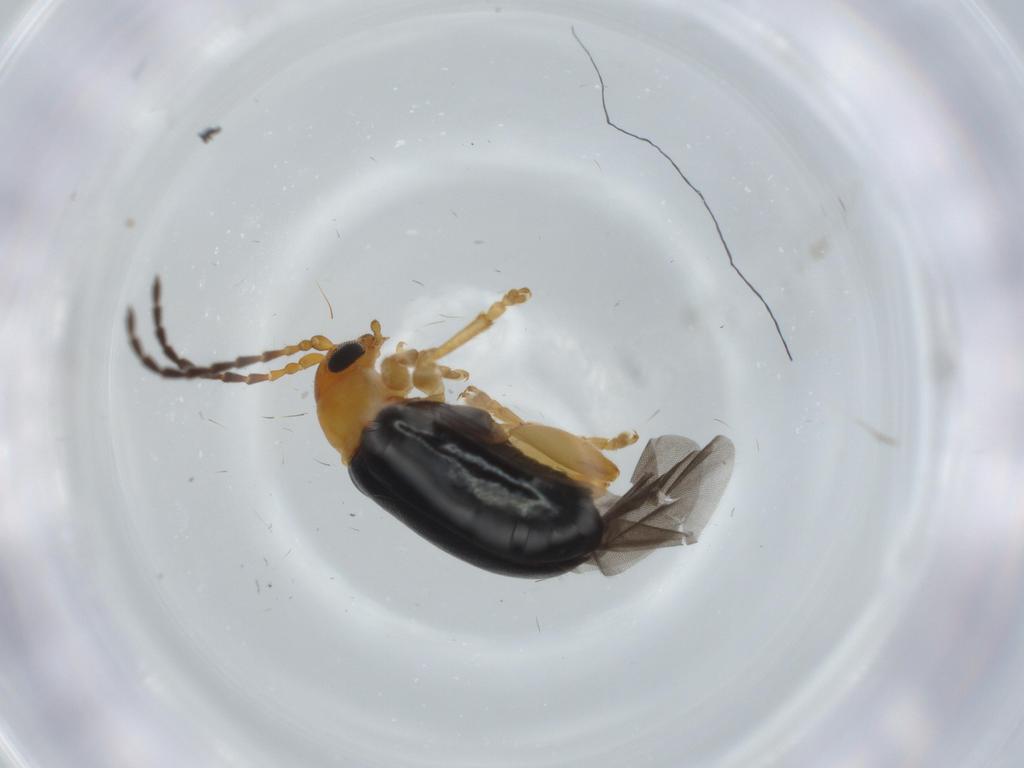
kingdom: Animalia
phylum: Arthropoda
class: Insecta
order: Coleoptera
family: Chrysomelidae
